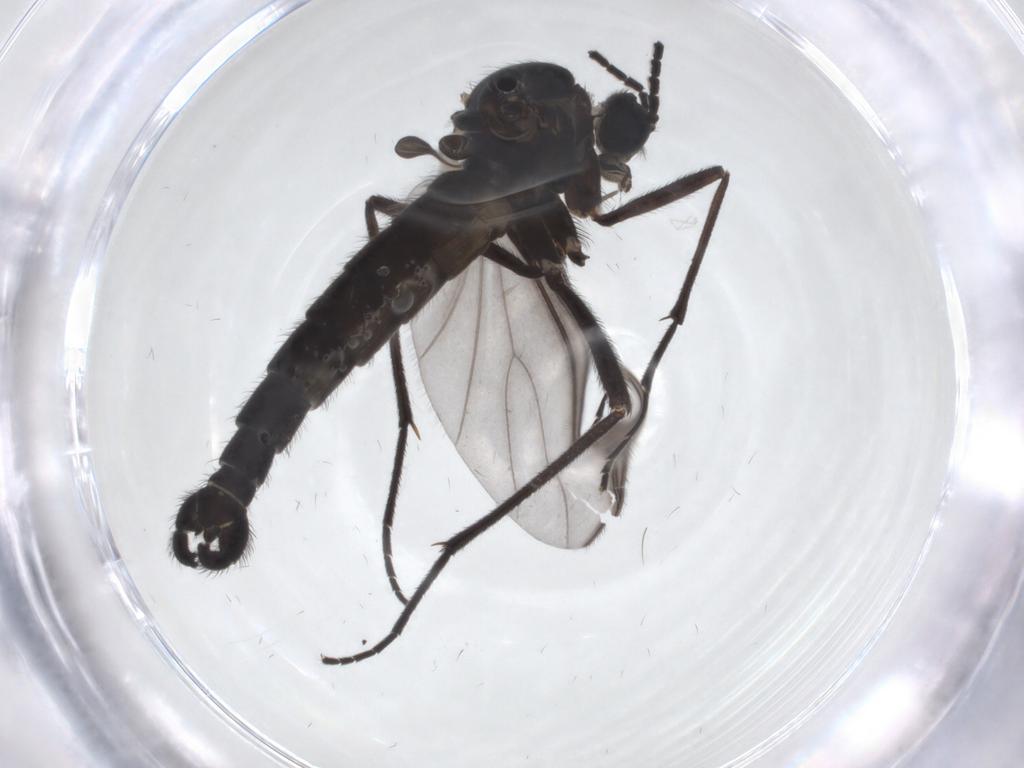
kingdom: Animalia
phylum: Arthropoda
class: Insecta
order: Diptera
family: Sciaridae
